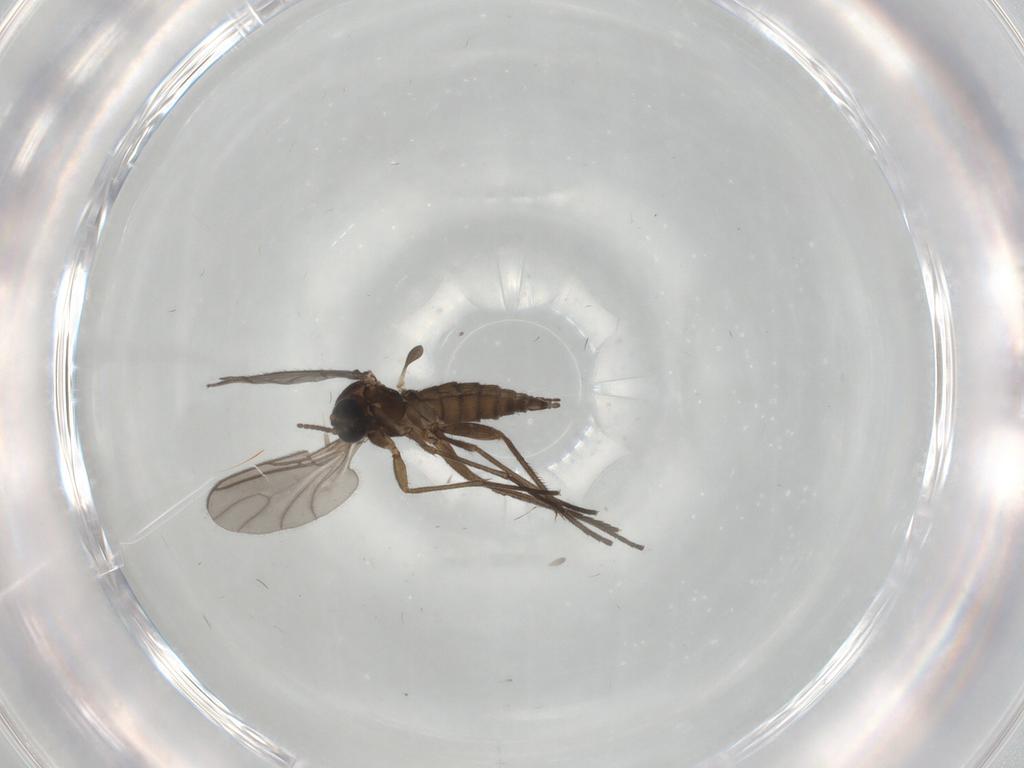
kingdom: Animalia
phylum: Arthropoda
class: Insecta
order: Diptera
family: Sciaridae
